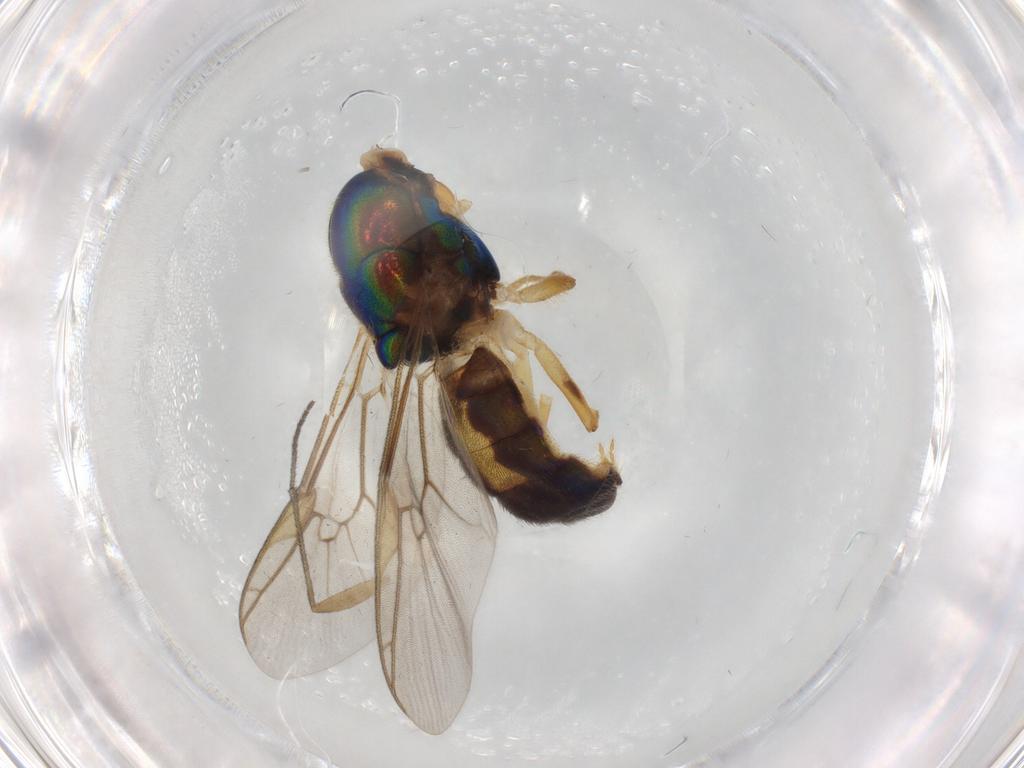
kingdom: Animalia
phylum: Arthropoda
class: Insecta
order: Diptera
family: Stratiomyidae
